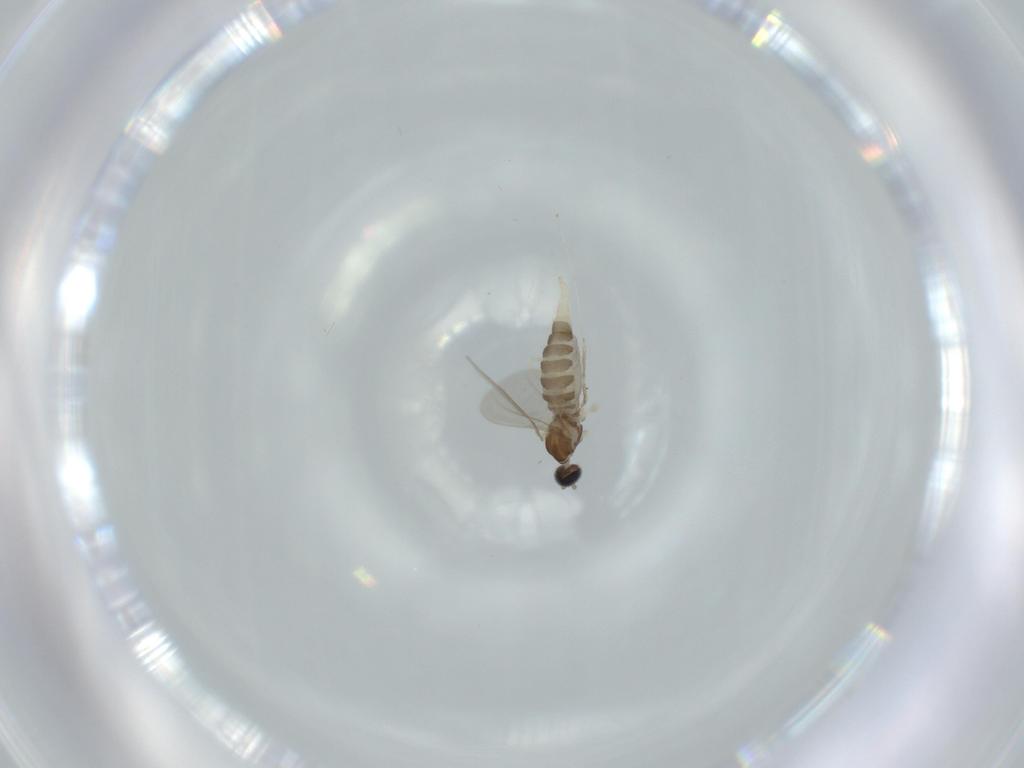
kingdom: Animalia
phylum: Arthropoda
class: Insecta
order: Diptera
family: Cecidomyiidae
